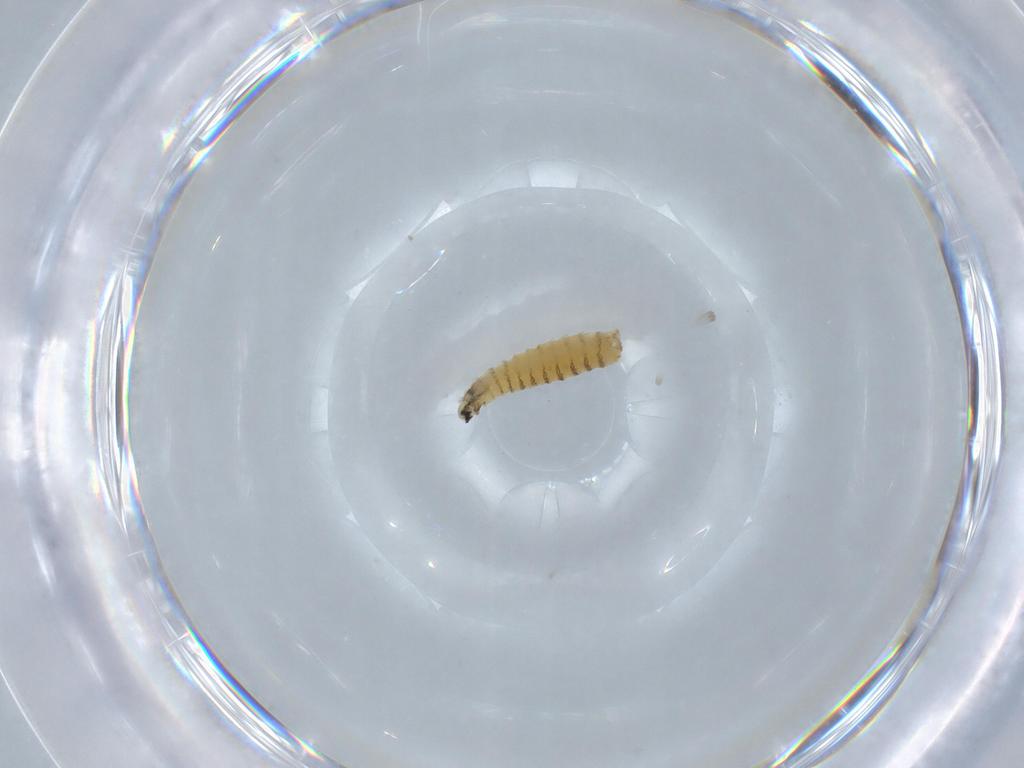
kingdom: Animalia
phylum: Arthropoda
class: Insecta
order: Diptera
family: Sarcophagidae
